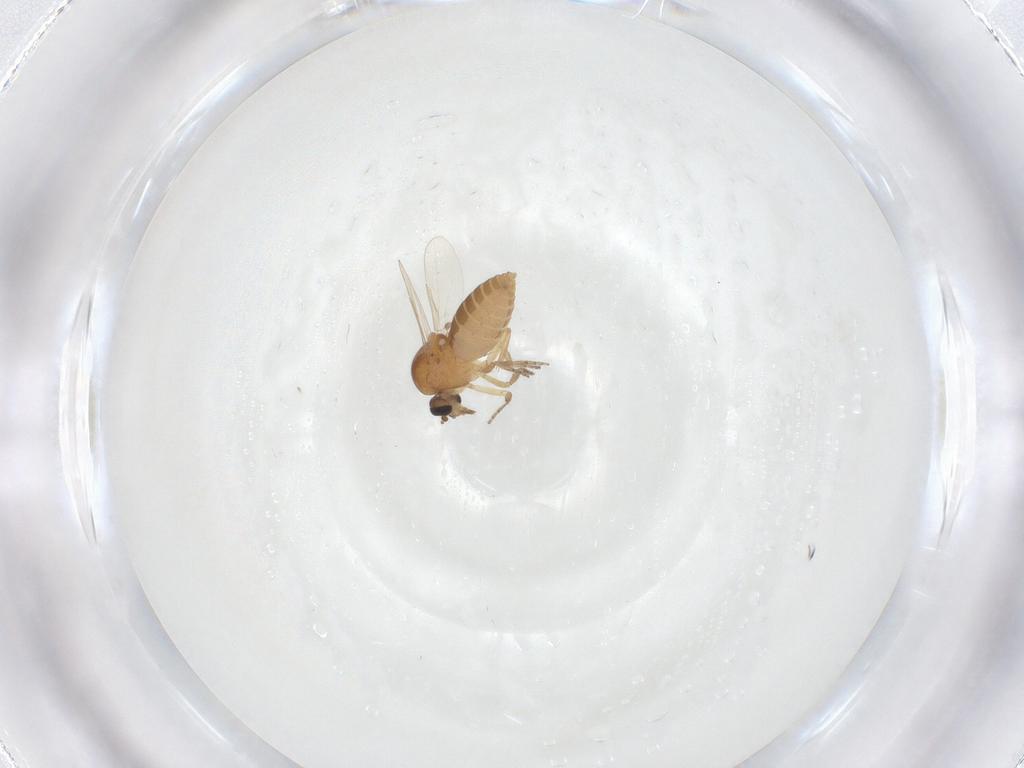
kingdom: Animalia
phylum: Arthropoda
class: Insecta
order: Diptera
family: Ceratopogonidae
